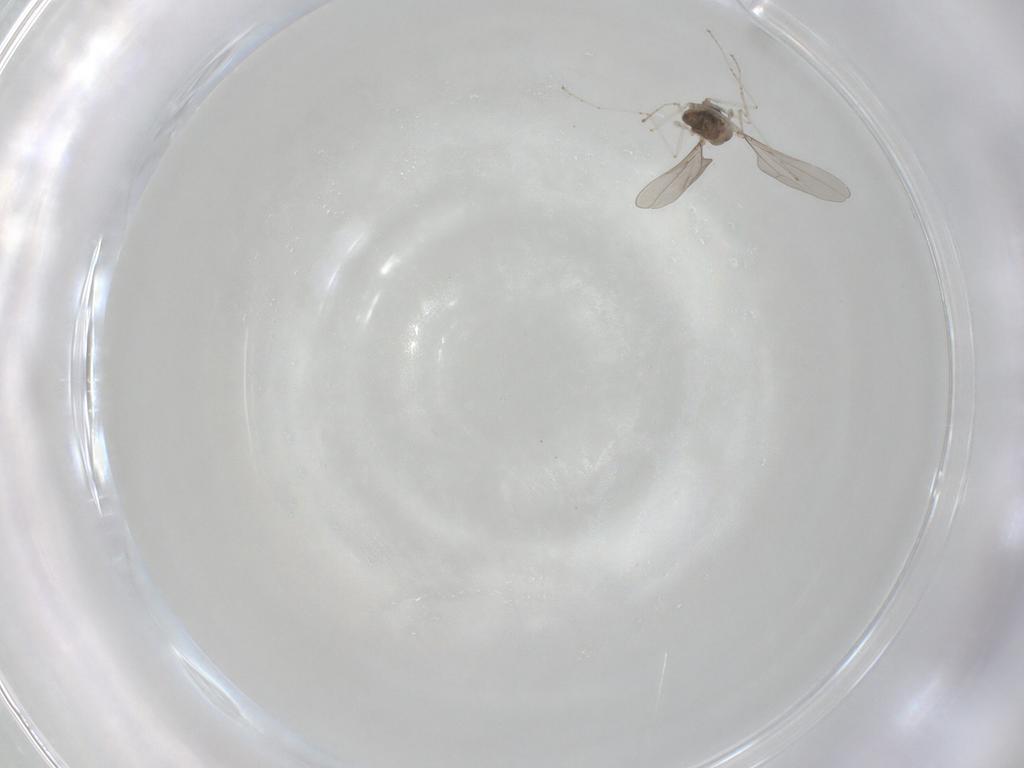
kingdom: Animalia
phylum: Arthropoda
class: Insecta
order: Diptera
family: Cecidomyiidae
